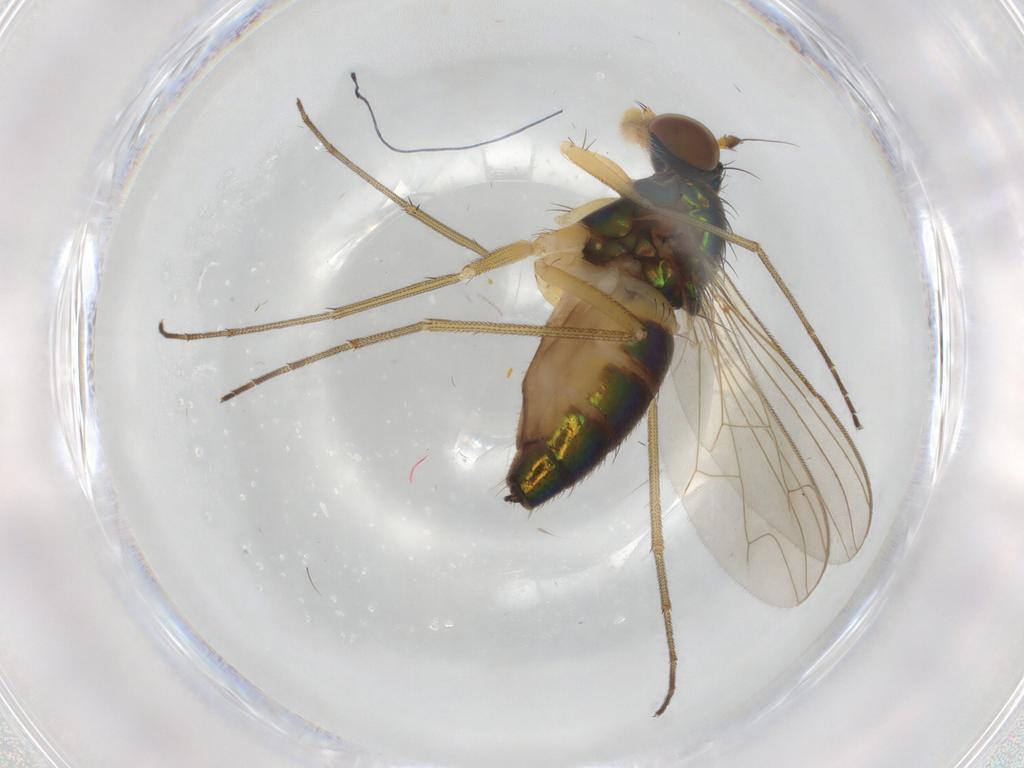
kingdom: Animalia
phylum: Arthropoda
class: Insecta
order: Diptera
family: Dolichopodidae
